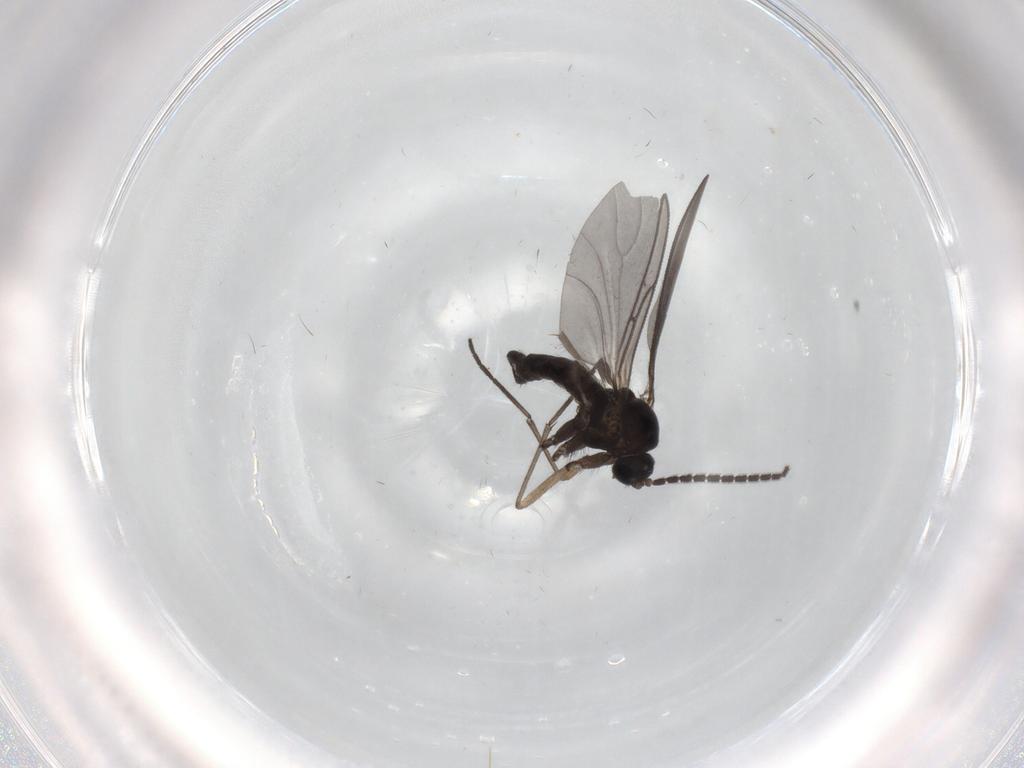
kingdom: Animalia
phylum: Arthropoda
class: Insecta
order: Diptera
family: Sciaridae
